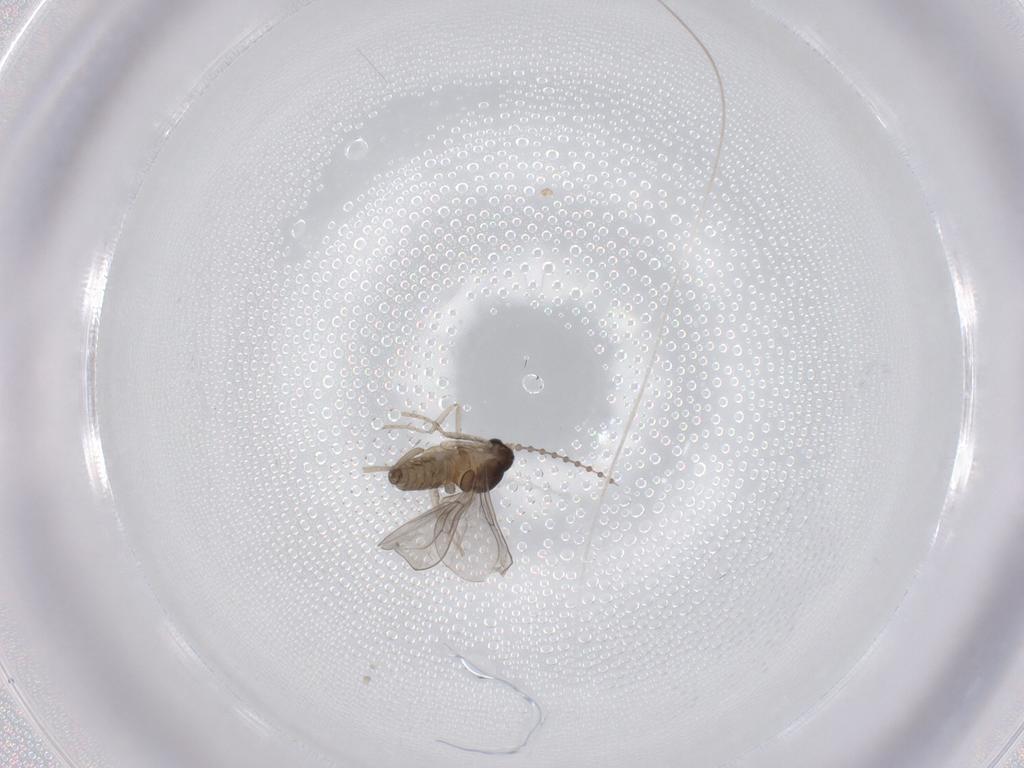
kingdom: Animalia
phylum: Arthropoda
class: Insecta
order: Diptera
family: Cecidomyiidae
